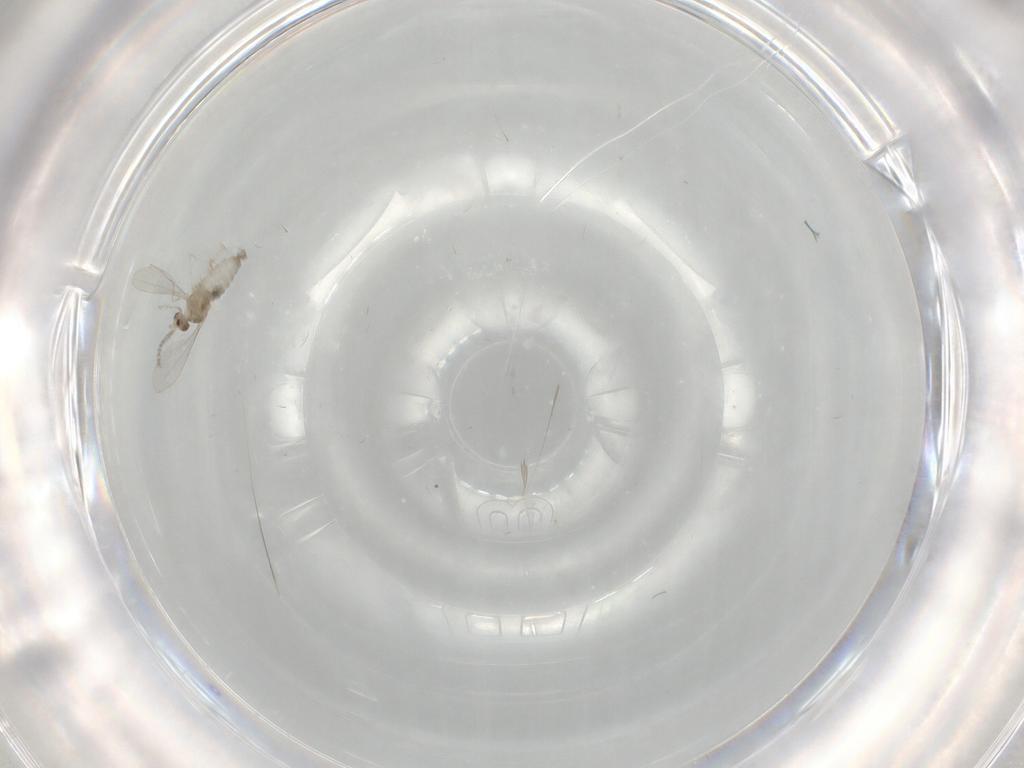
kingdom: Animalia
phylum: Arthropoda
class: Insecta
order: Diptera
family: Cecidomyiidae
